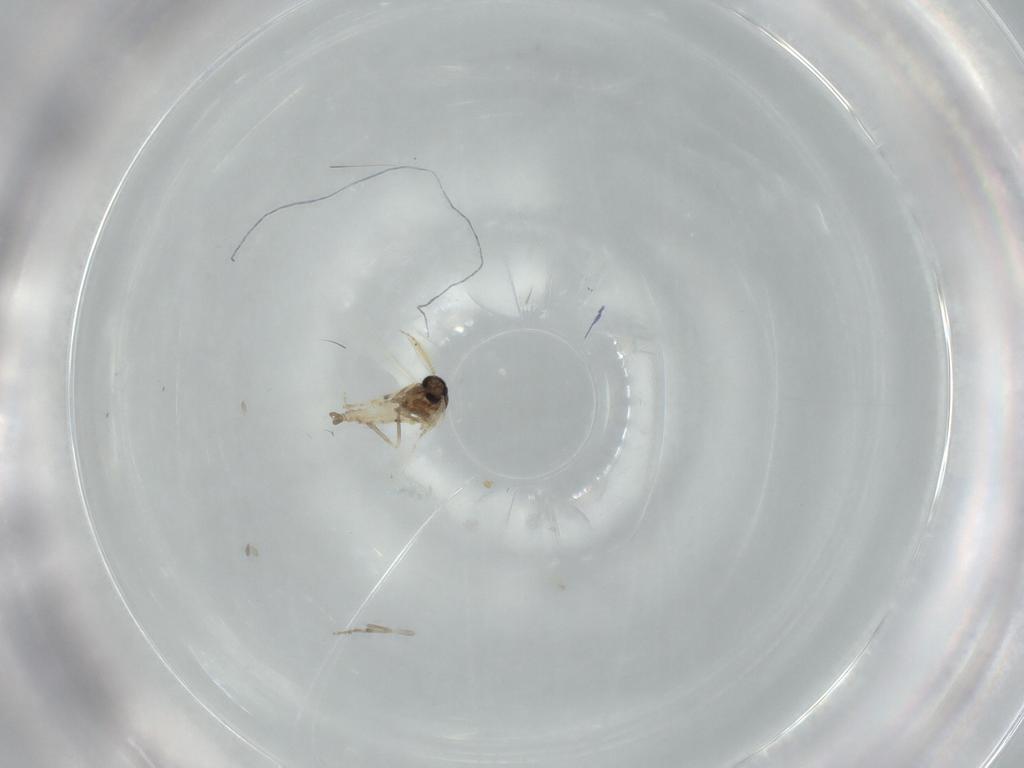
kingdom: Animalia
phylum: Arthropoda
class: Insecta
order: Diptera
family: Ceratopogonidae
